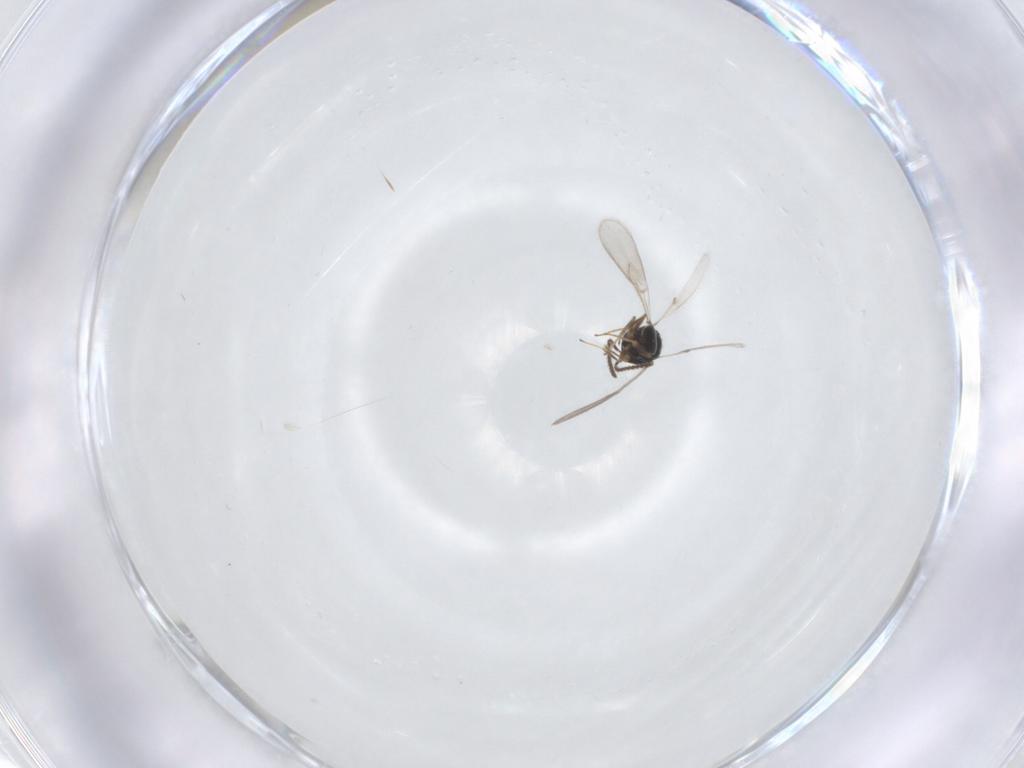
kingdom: Animalia
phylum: Arthropoda
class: Insecta
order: Hymenoptera
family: Scelionidae
